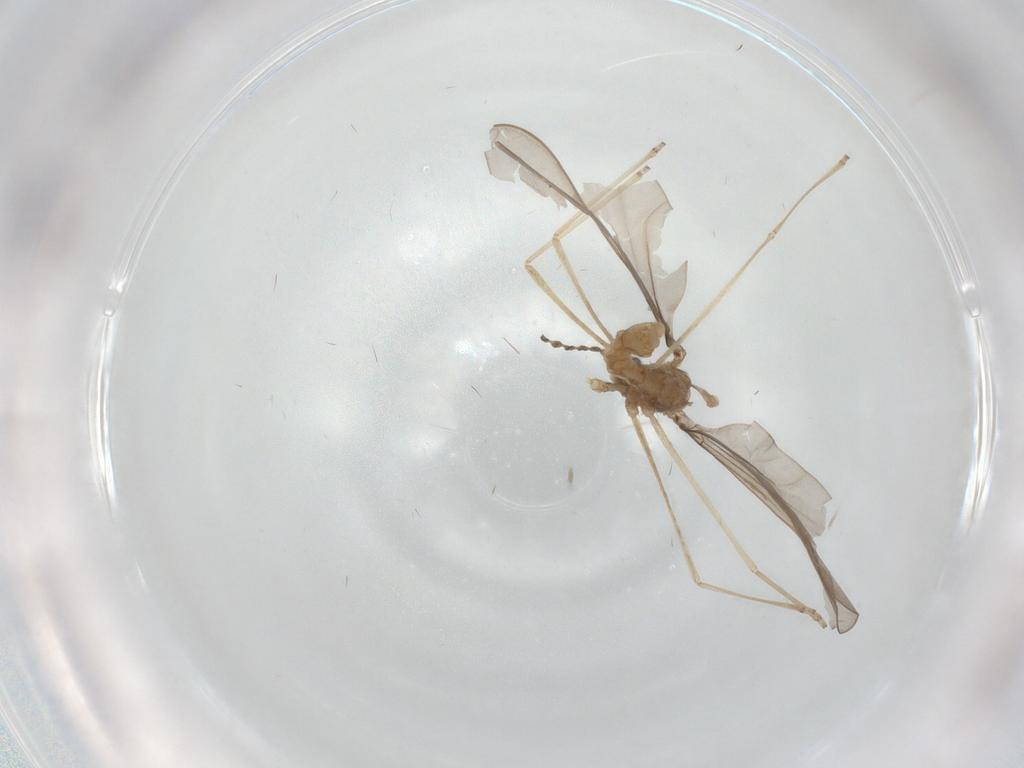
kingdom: Animalia
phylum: Arthropoda
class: Insecta
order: Diptera
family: Cecidomyiidae
